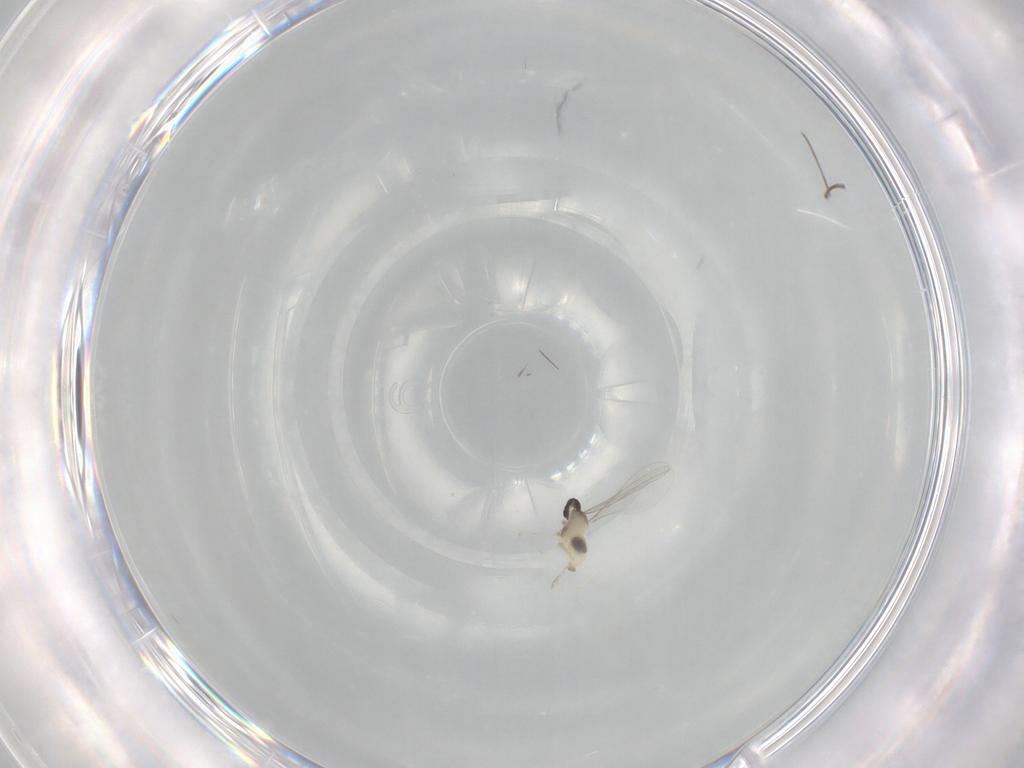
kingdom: Animalia
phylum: Arthropoda
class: Insecta
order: Diptera
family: Cecidomyiidae
